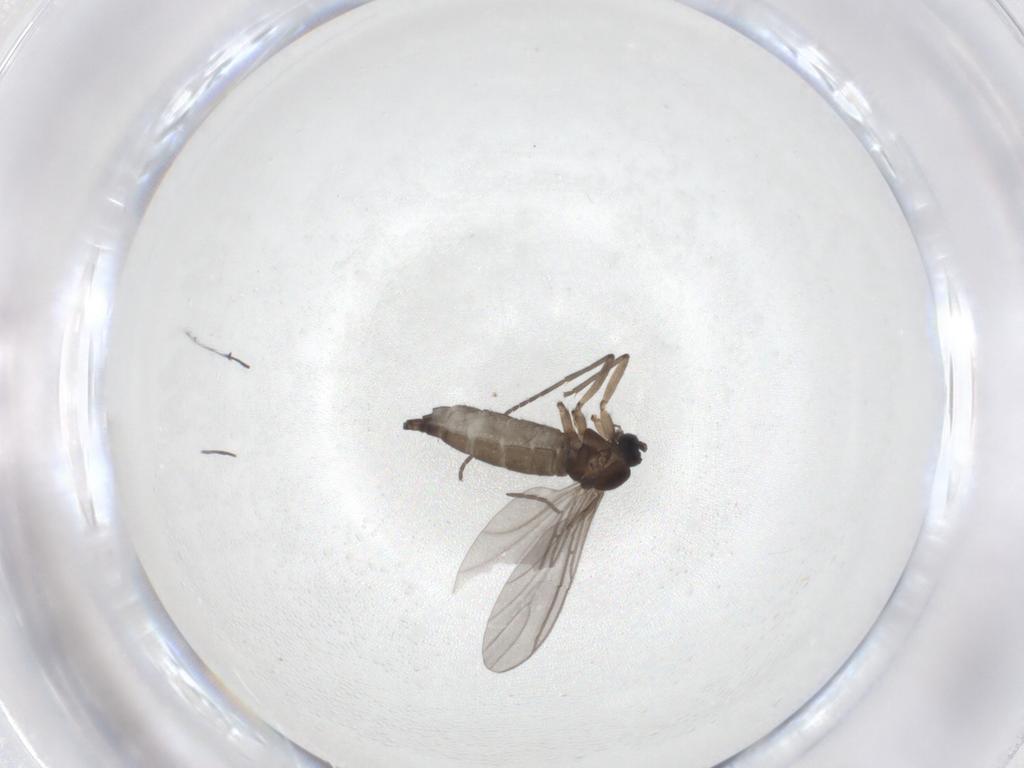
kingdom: Animalia
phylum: Arthropoda
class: Insecta
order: Diptera
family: Sciaridae
